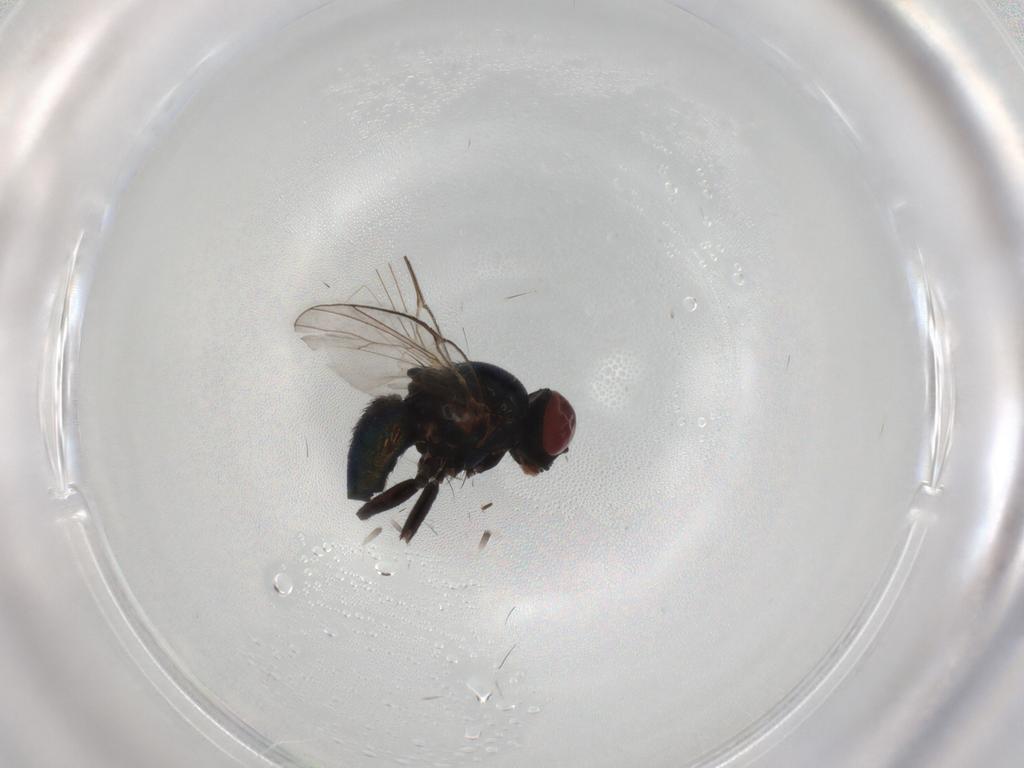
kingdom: Animalia
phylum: Arthropoda
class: Insecta
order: Diptera
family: Agromyzidae
